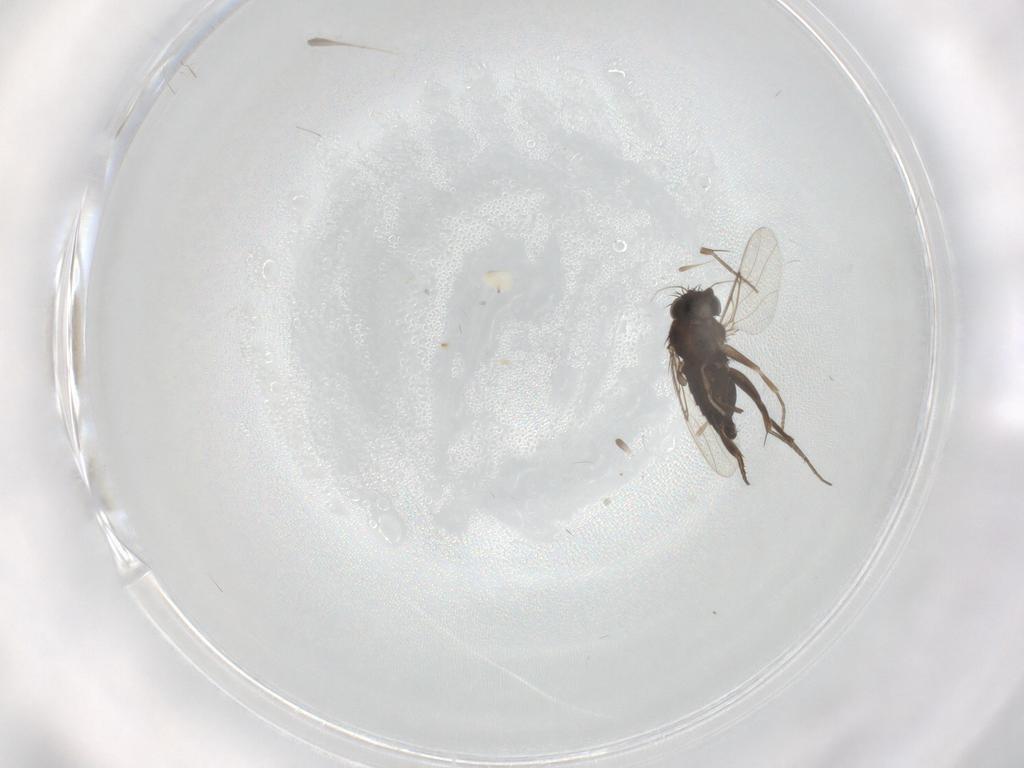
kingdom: Animalia
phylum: Arthropoda
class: Insecta
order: Diptera
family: Phoridae
